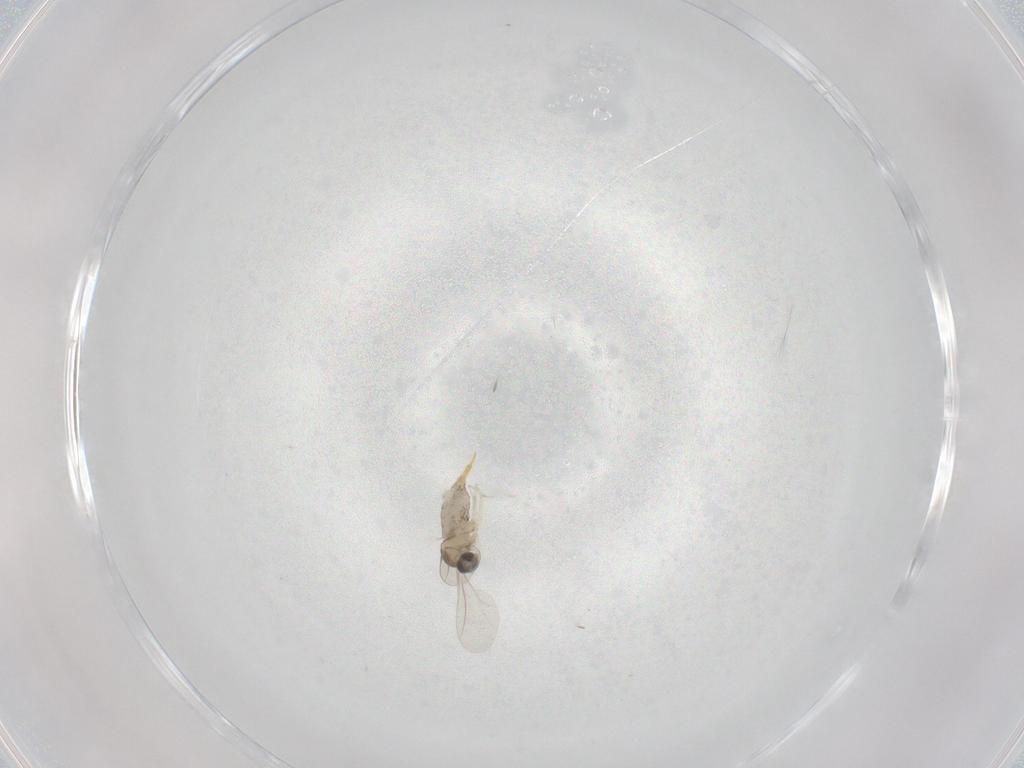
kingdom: Animalia
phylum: Arthropoda
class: Insecta
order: Diptera
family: Cecidomyiidae
